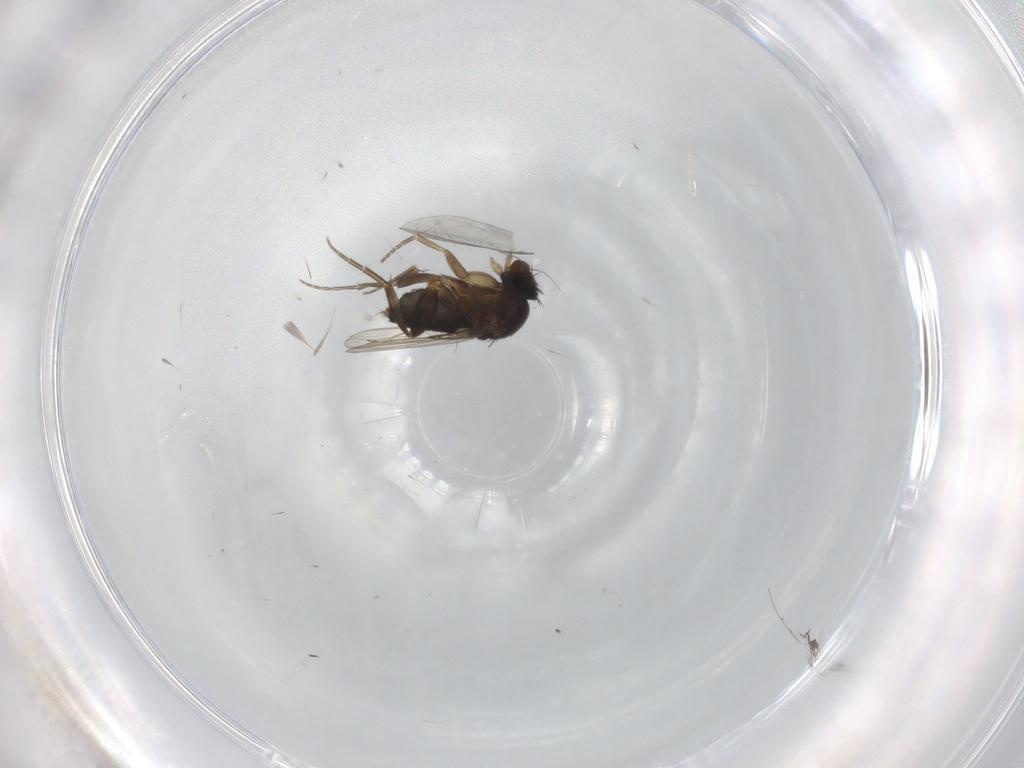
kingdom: Animalia
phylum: Arthropoda
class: Insecta
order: Diptera
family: Phoridae
